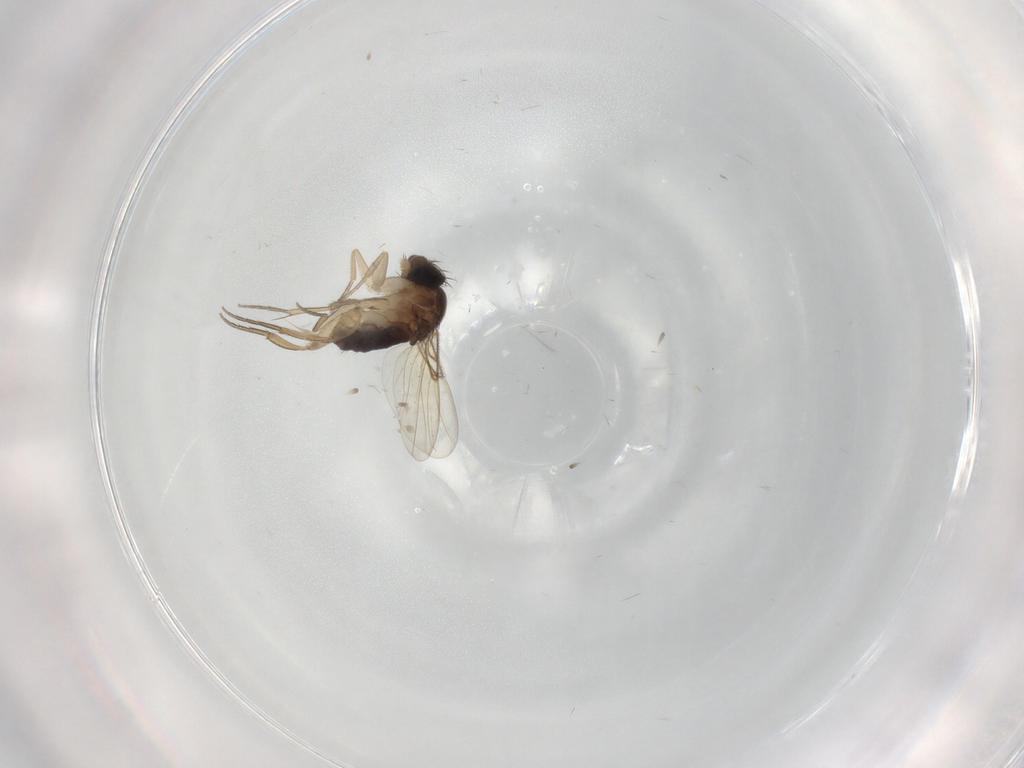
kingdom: Animalia
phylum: Arthropoda
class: Insecta
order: Diptera
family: Phoridae
